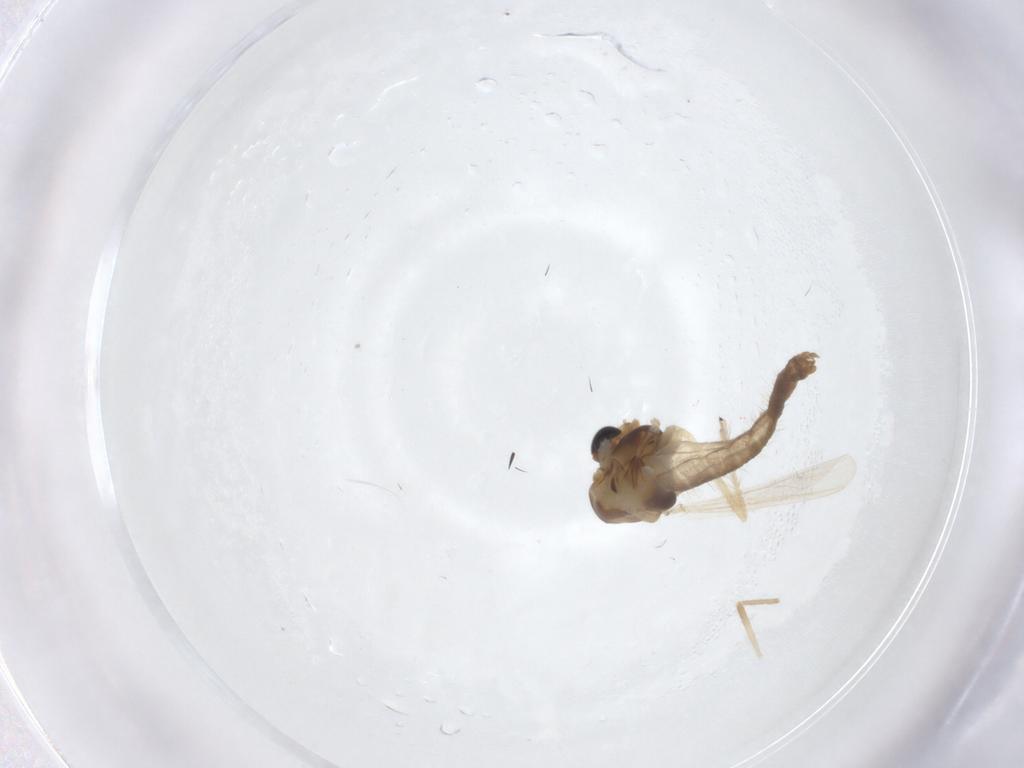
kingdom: Animalia
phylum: Arthropoda
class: Insecta
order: Diptera
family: Chironomidae
